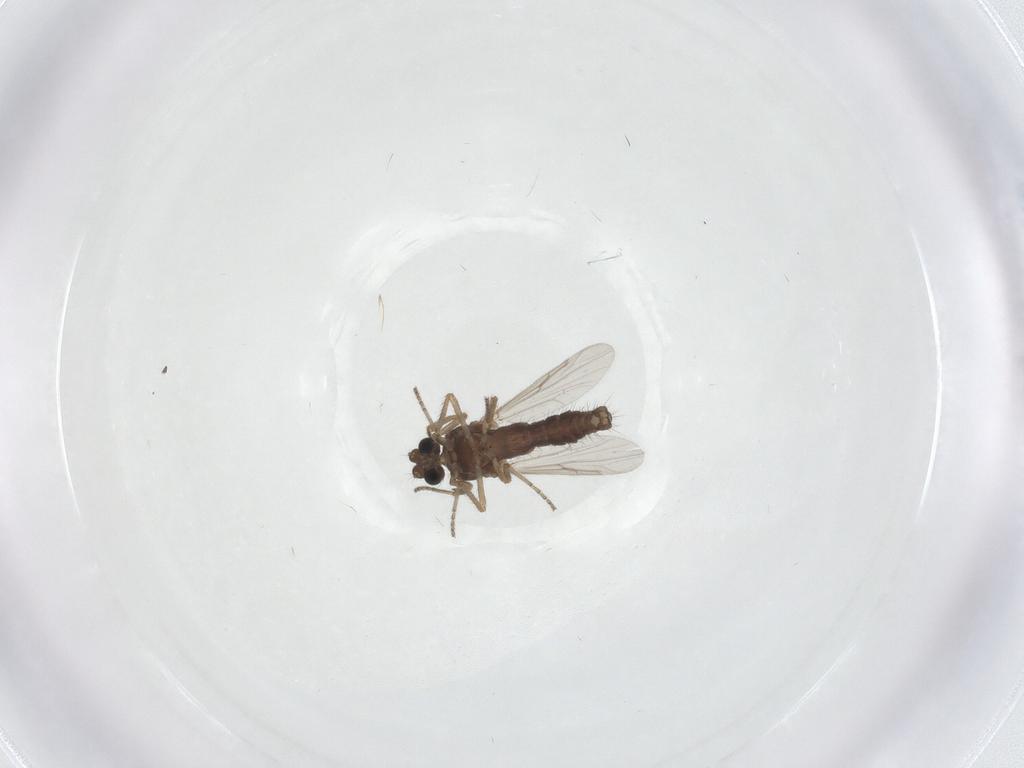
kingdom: Animalia
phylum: Arthropoda
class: Insecta
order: Diptera
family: Ceratopogonidae
